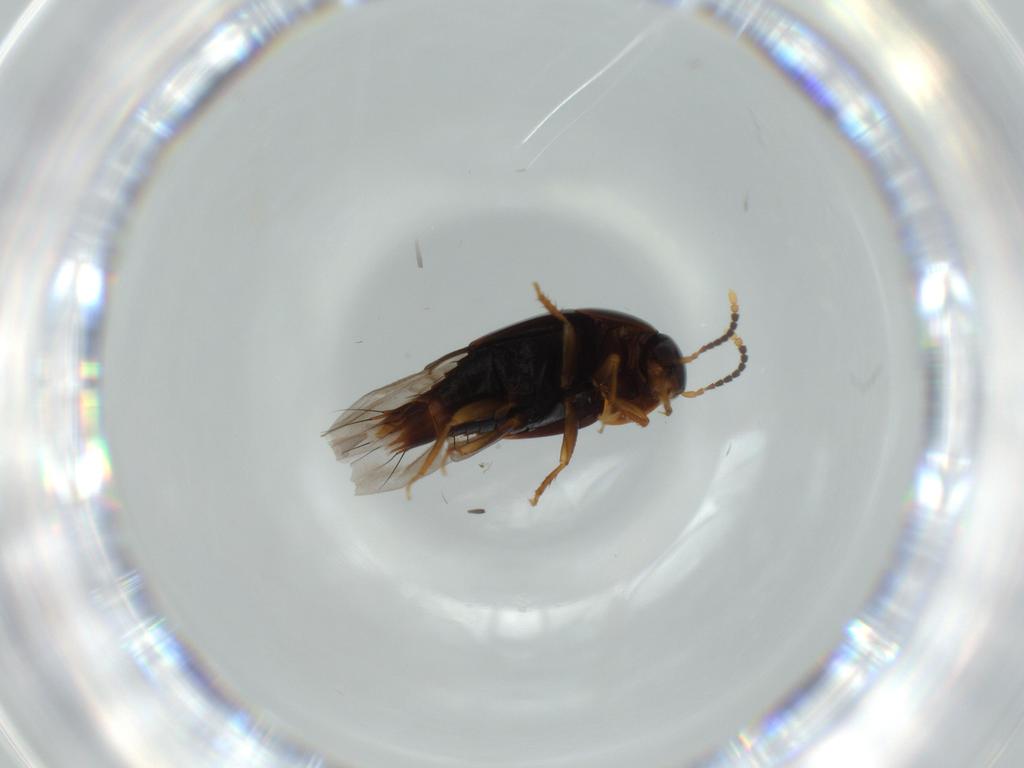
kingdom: Animalia
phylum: Arthropoda
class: Insecta
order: Coleoptera
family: Staphylinidae
